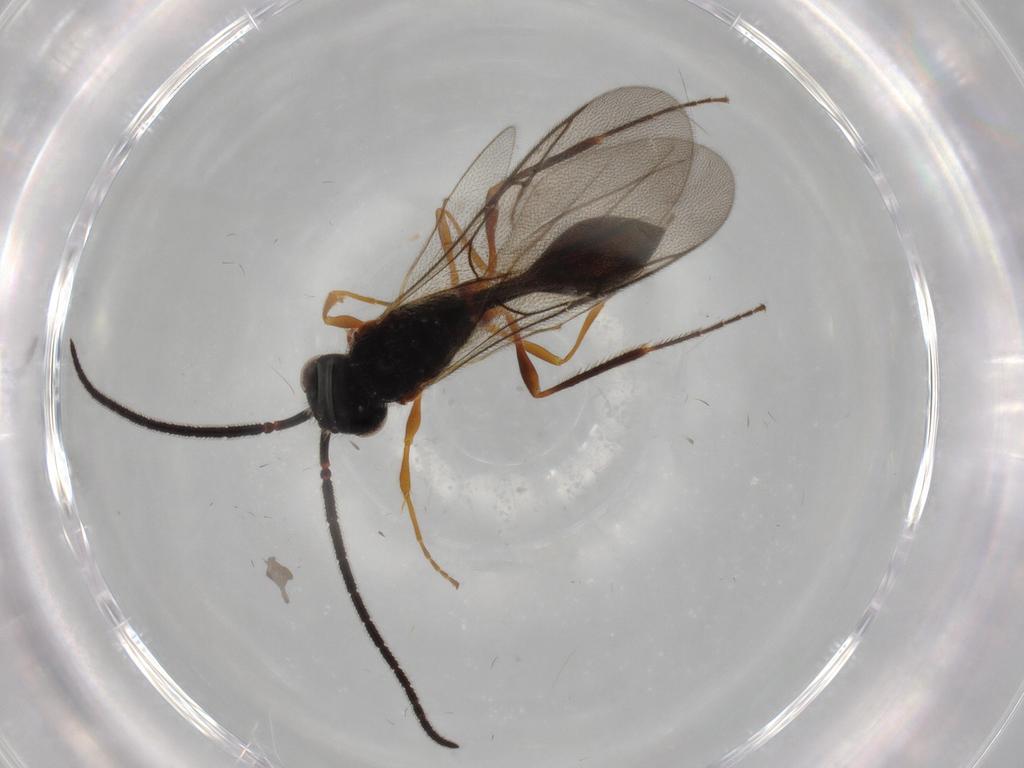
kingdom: Animalia
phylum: Arthropoda
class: Insecta
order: Hymenoptera
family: Diapriidae
